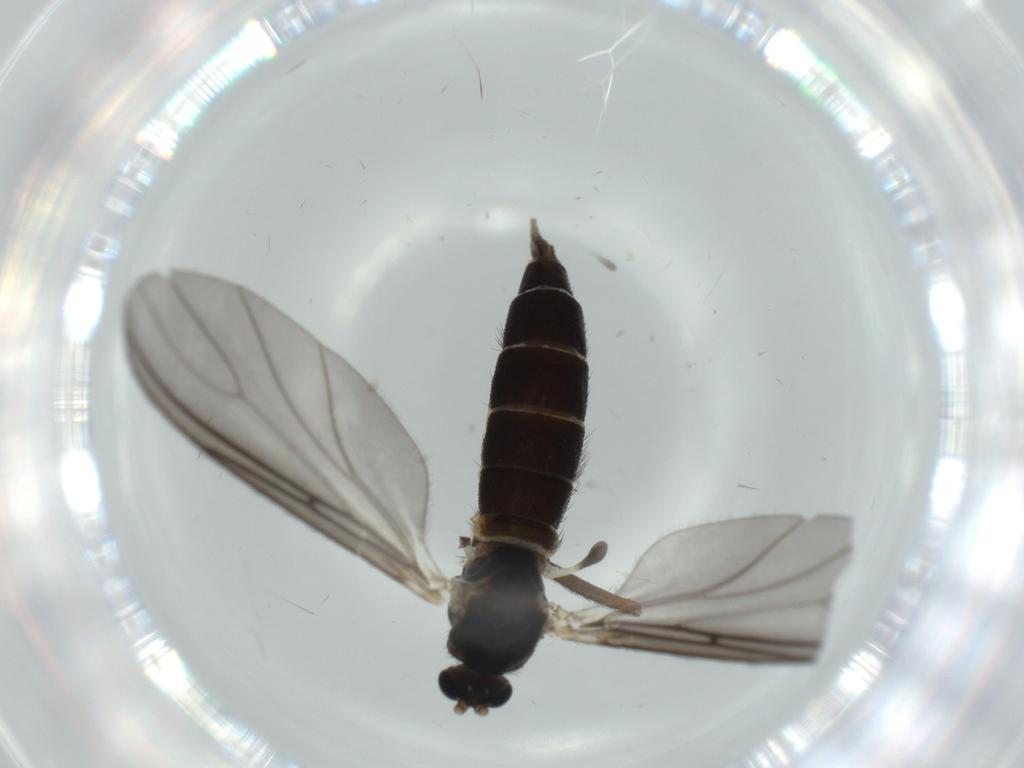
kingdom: Animalia
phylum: Arthropoda
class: Insecta
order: Diptera
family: Sciaridae
